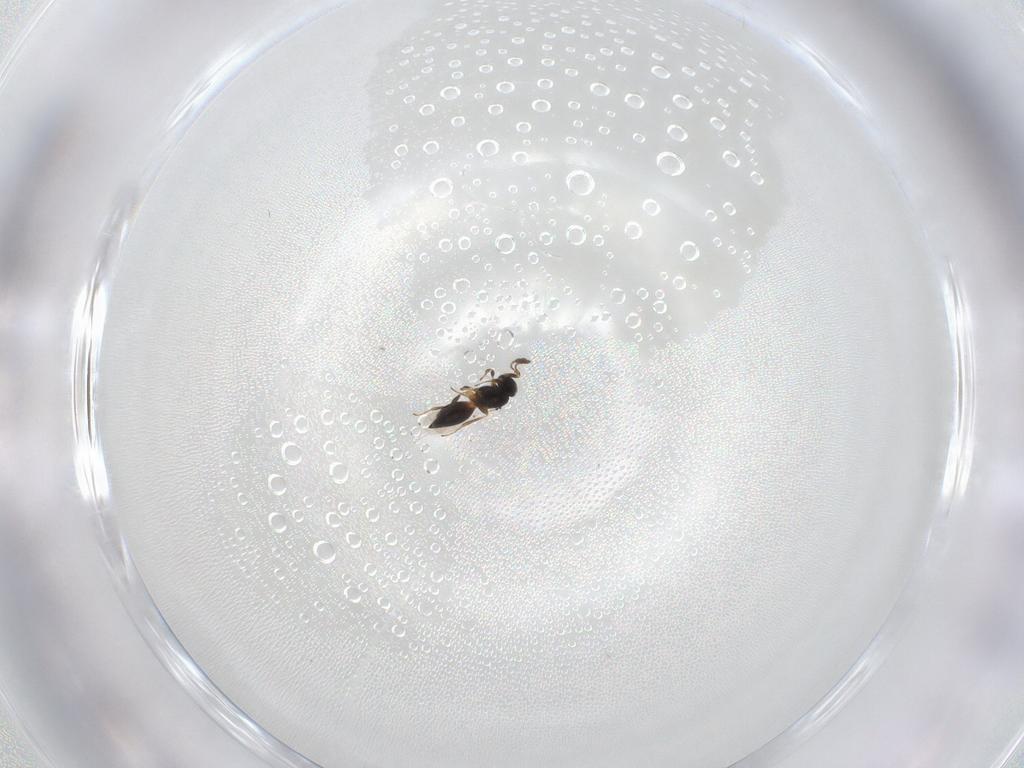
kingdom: Animalia
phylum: Arthropoda
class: Insecta
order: Hymenoptera
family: Platygastridae
